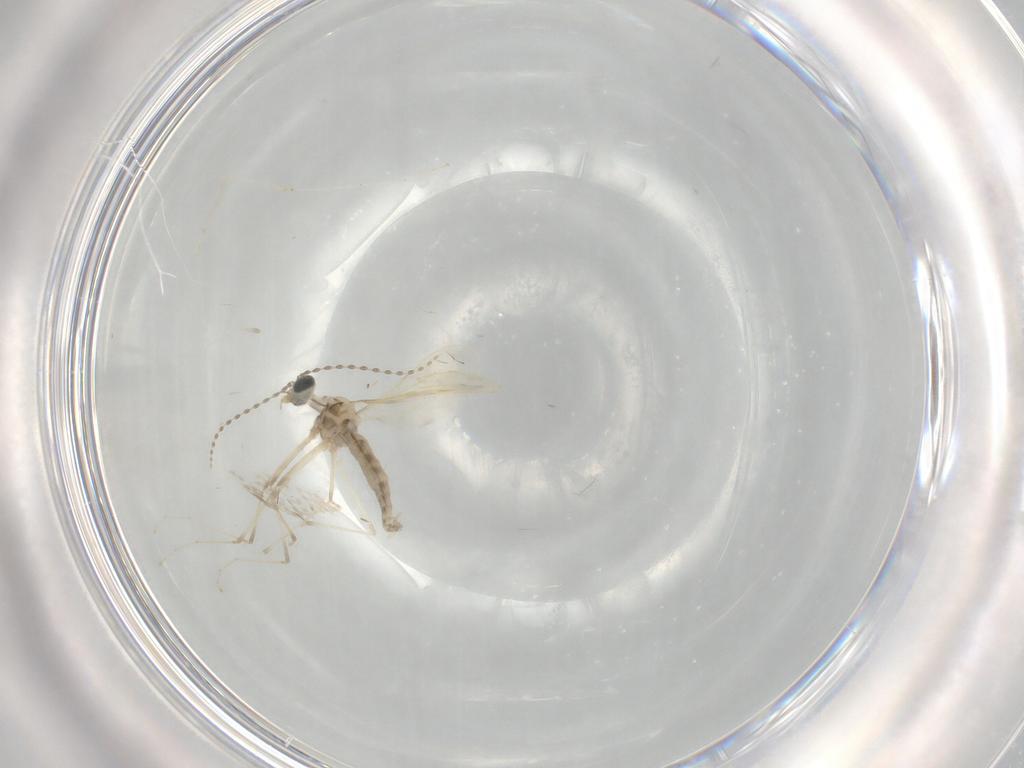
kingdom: Animalia
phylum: Arthropoda
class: Insecta
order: Diptera
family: Cecidomyiidae
